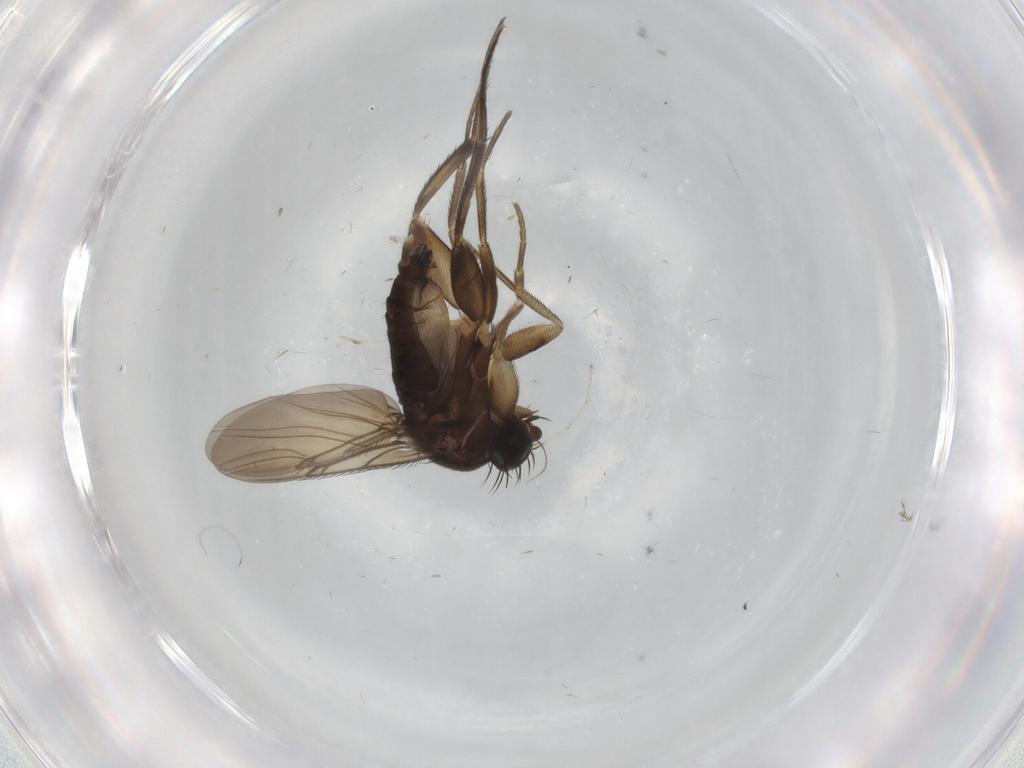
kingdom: Animalia
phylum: Arthropoda
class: Insecta
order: Diptera
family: Phoridae
